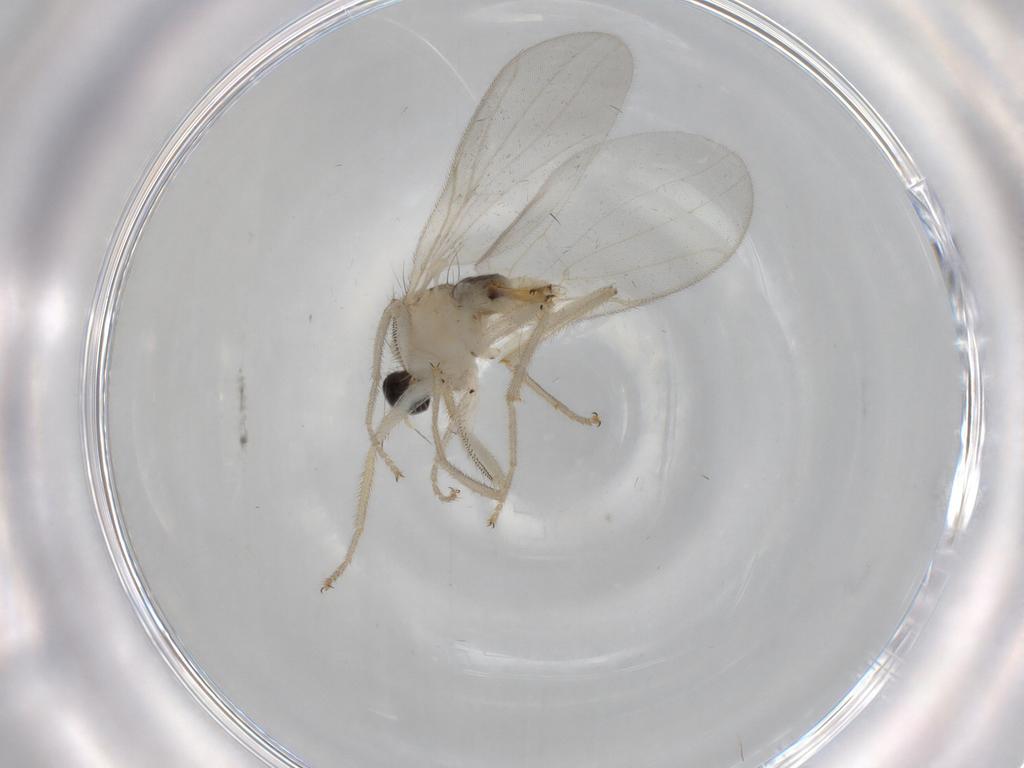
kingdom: Animalia
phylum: Arthropoda
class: Insecta
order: Diptera
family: Hybotidae
